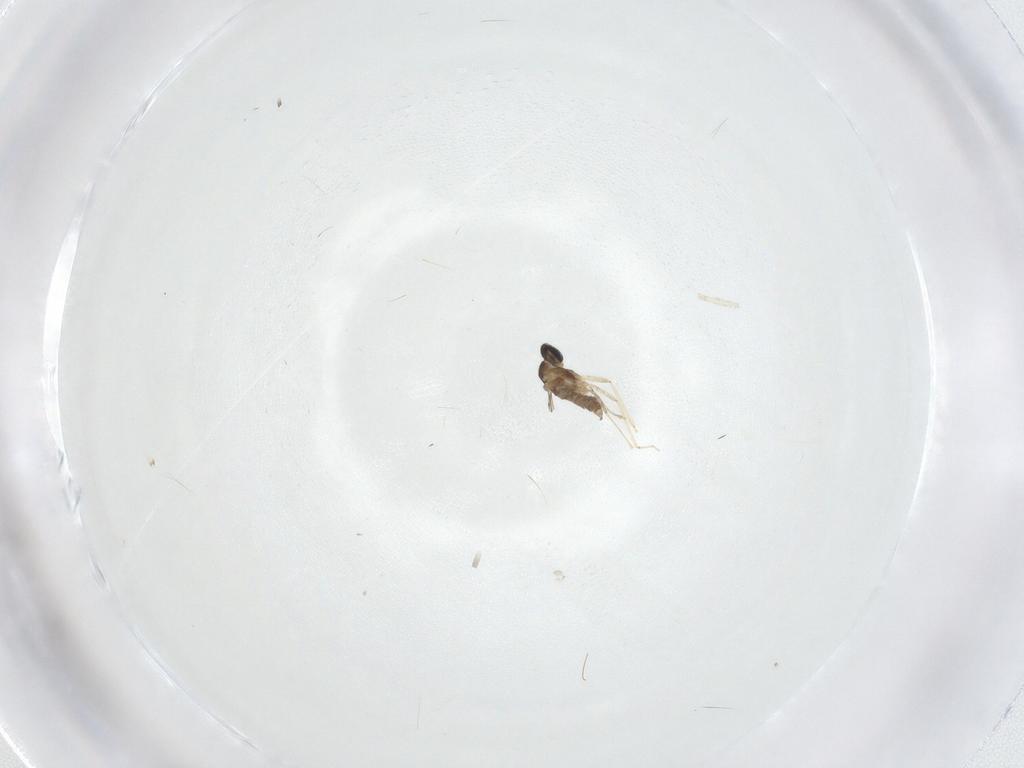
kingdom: Animalia
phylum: Arthropoda
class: Insecta
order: Diptera
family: Cecidomyiidae
